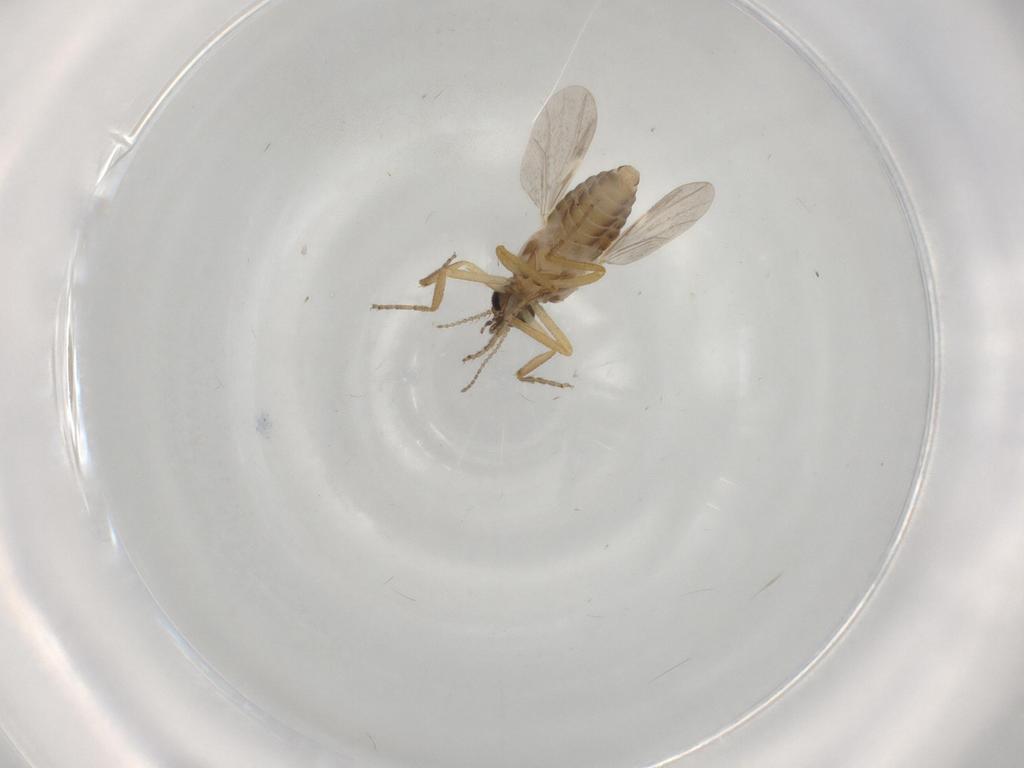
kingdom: Animalia
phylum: Arthropoda
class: Insecta
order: Diptera
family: Ceratopogonidae
